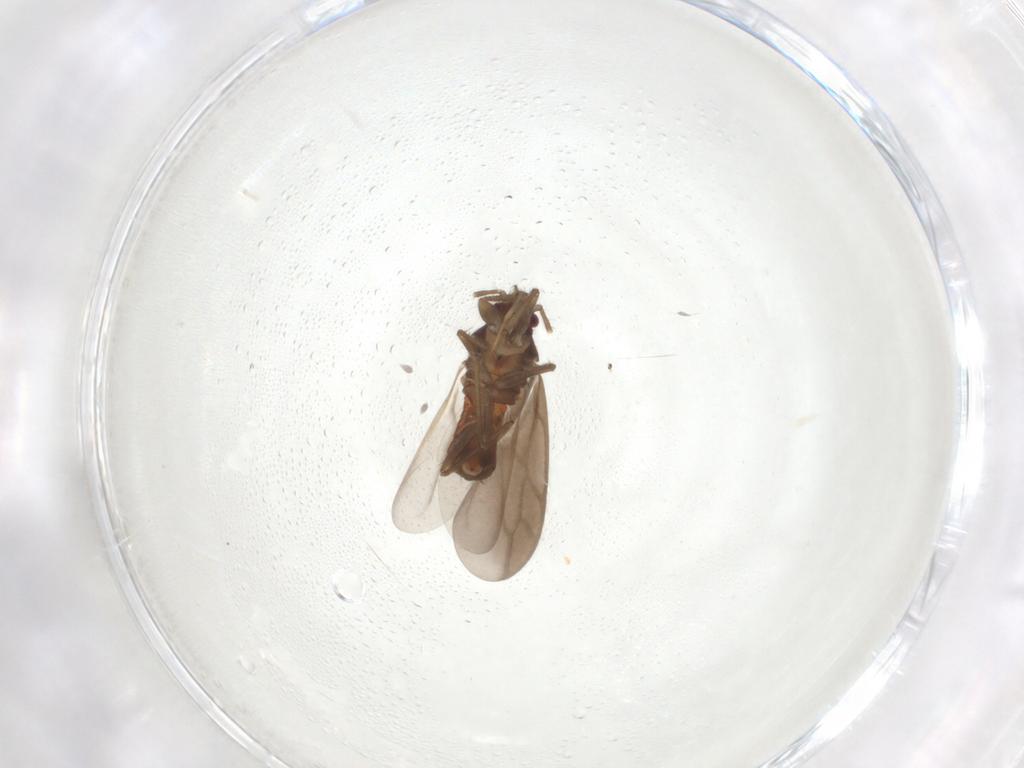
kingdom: Animalia
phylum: Arthropoda
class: Insecta
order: Hemiptera
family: Ceratocombidae
